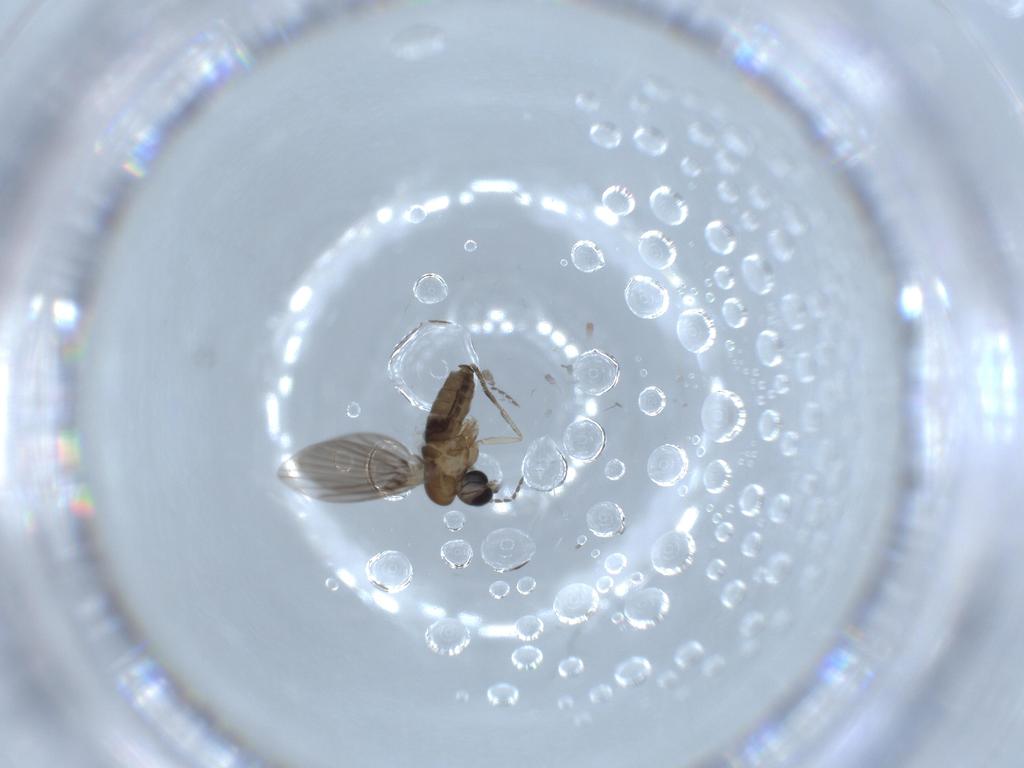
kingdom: Animalia
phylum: Arthropoda
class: Insecta
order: Diptera
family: Psychodidae
